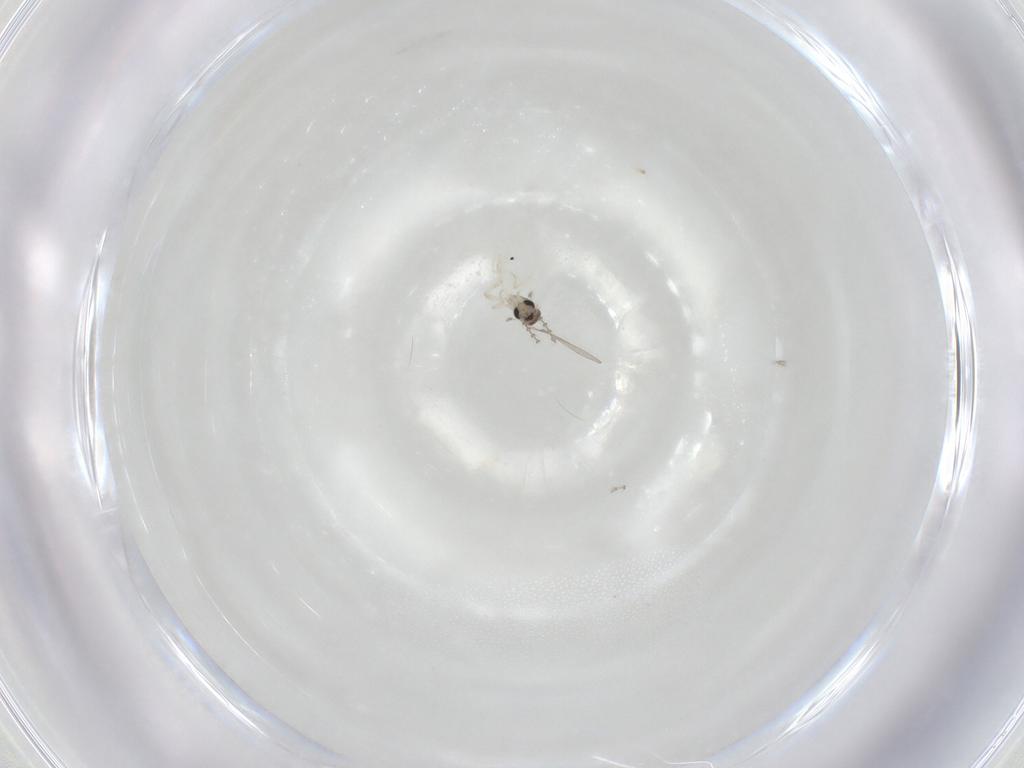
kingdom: Animalia
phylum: Arthropoda
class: Insecta
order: Diptera
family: Cecidomyiidae
